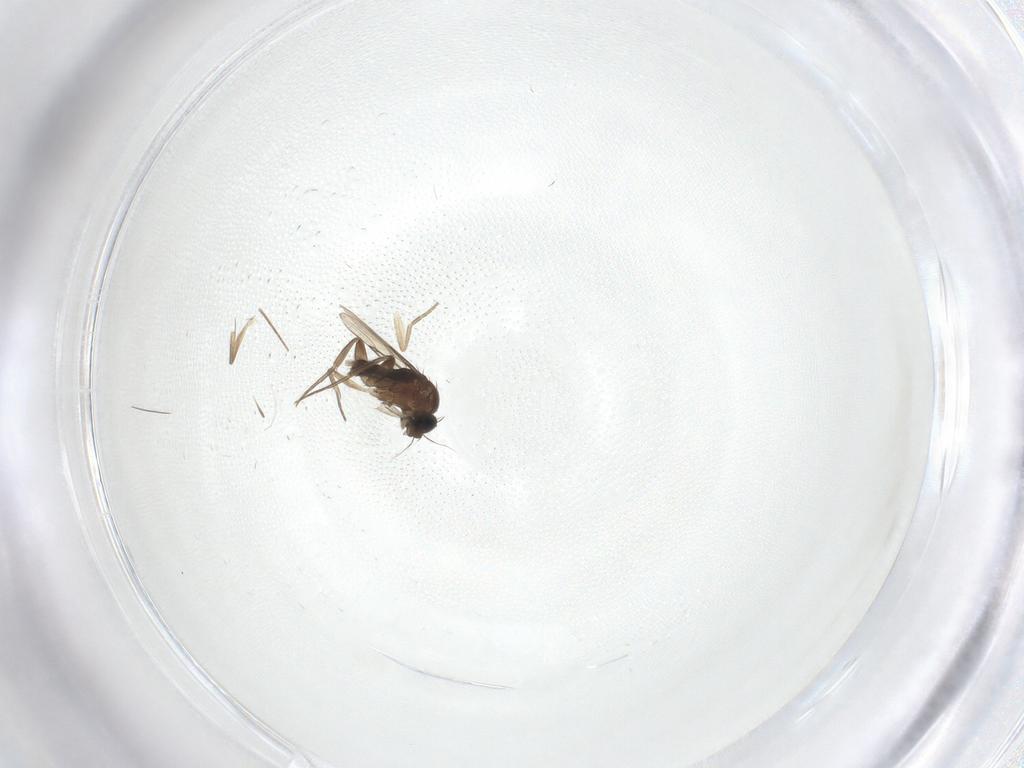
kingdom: Animalia
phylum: Arthropoda
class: Insecta
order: Diptera
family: Phoridae
